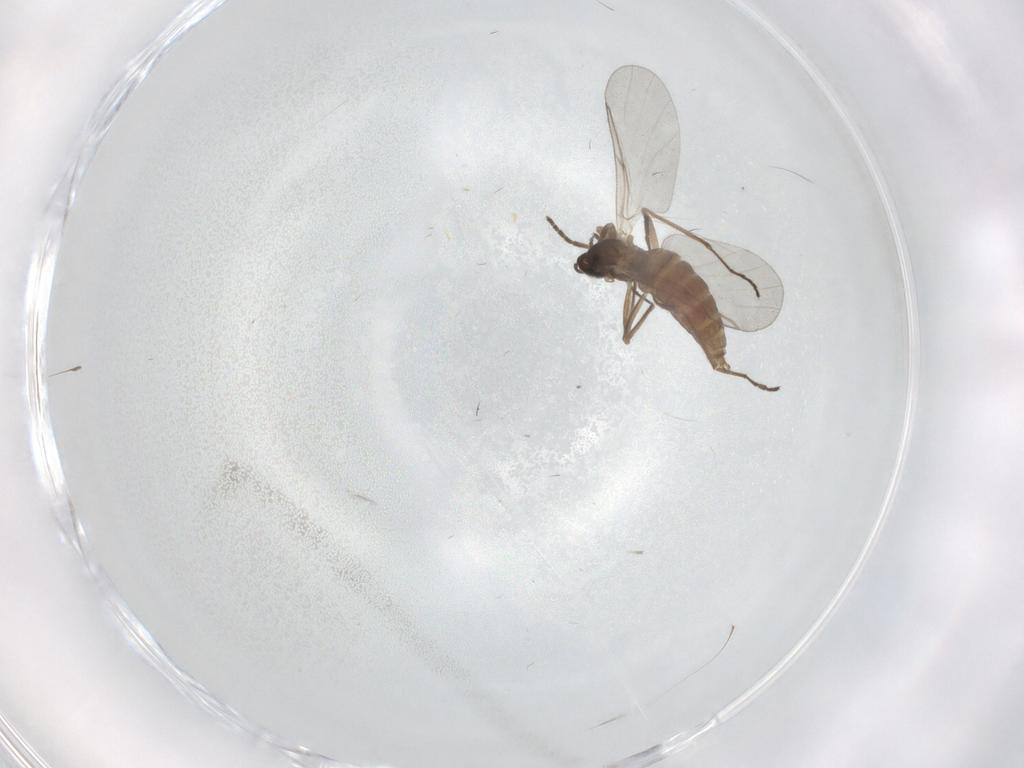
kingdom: Animalia
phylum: Arthropoda
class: Insecta
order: Diptera
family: Cecidomyiidae
